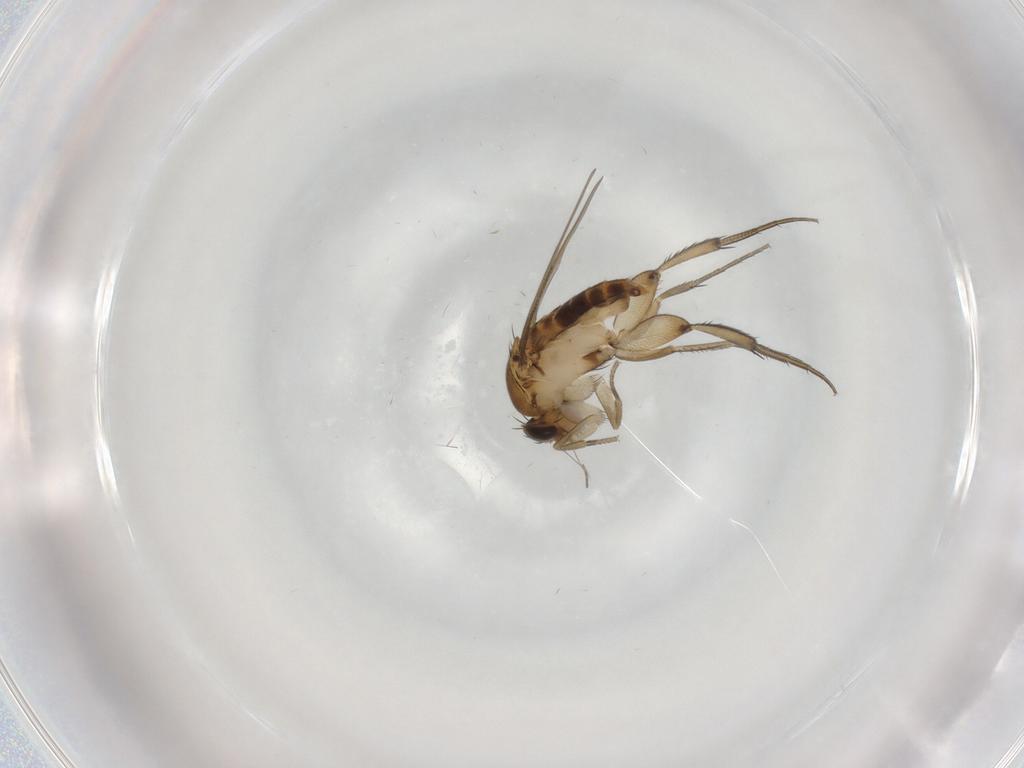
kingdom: Animalia
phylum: Arthropoda
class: Insecta
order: Diptera
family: Phoridae
